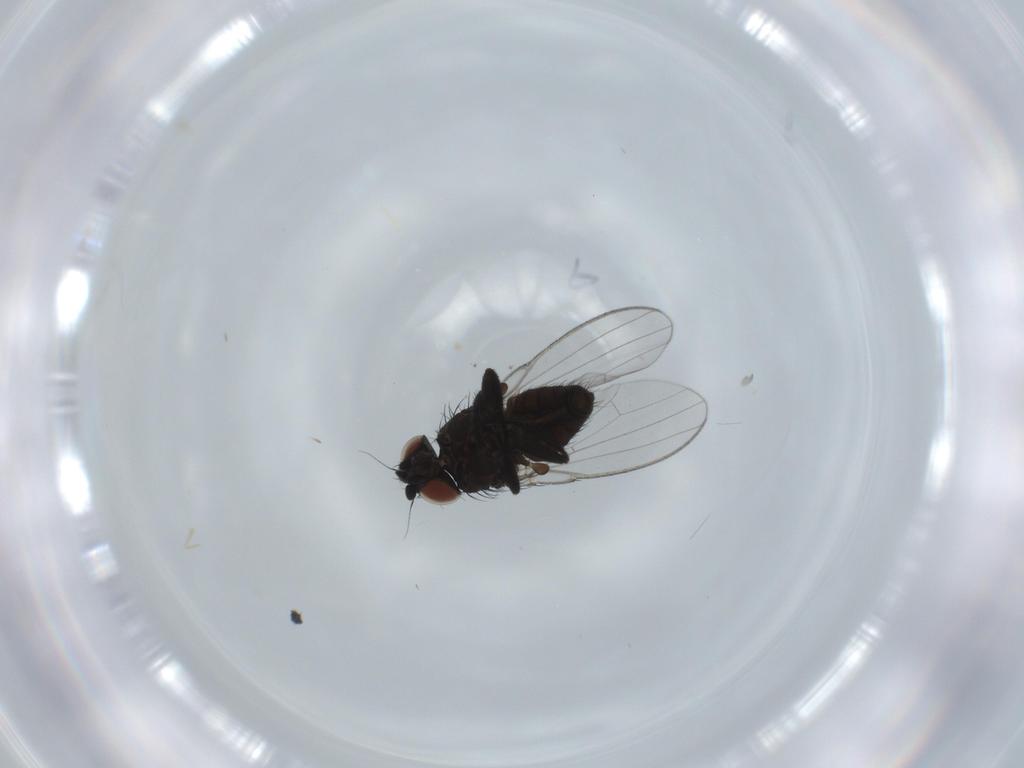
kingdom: Animalia
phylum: Arthropoda
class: Insecta
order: Diptera
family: Milichiidae
